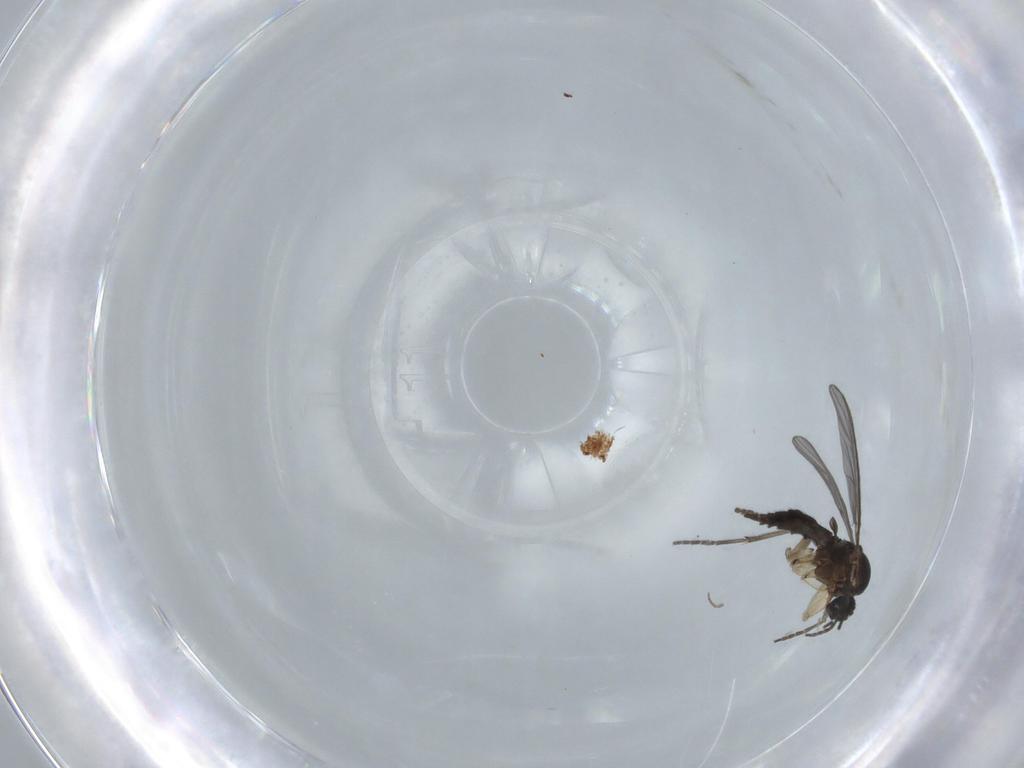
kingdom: Animalia
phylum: Arthropoda
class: Insecta
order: Diptera
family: Sciaridae
